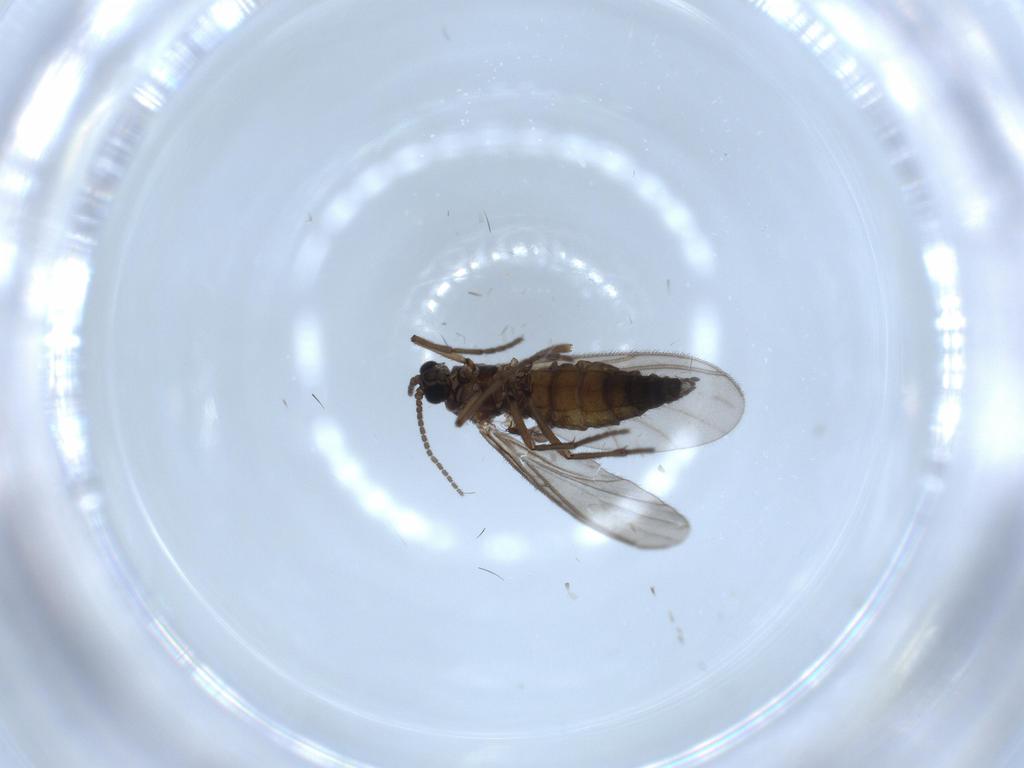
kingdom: Animalia
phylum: Arthropoda
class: Insecta
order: Diptera
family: Sciaridae
